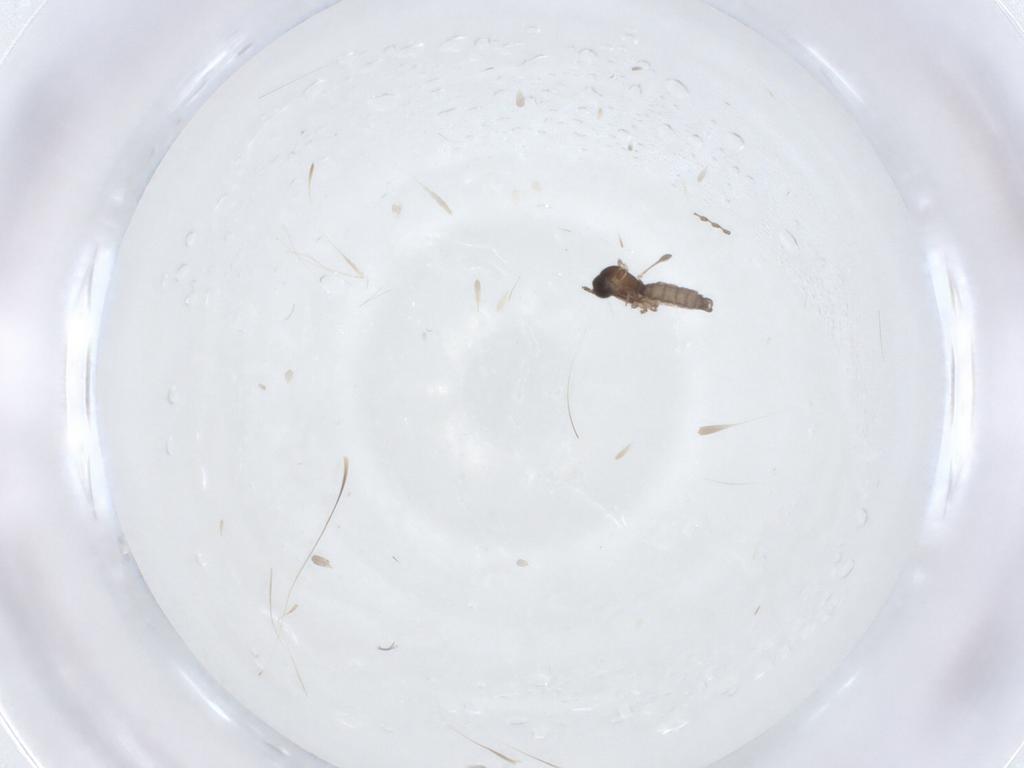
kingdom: Animalia
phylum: Arthropoda
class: Insecta
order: Diptera
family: Sciaridae
